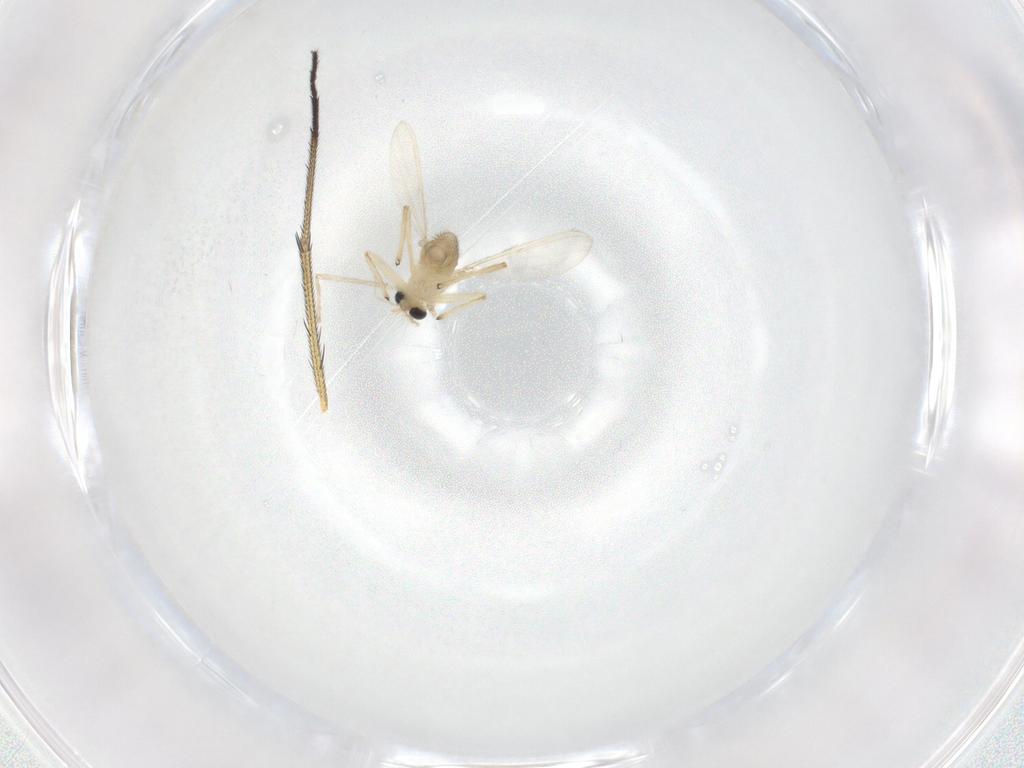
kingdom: Animalia
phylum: Arthropoda
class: Insecta
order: Diptera
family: Chironomidae
